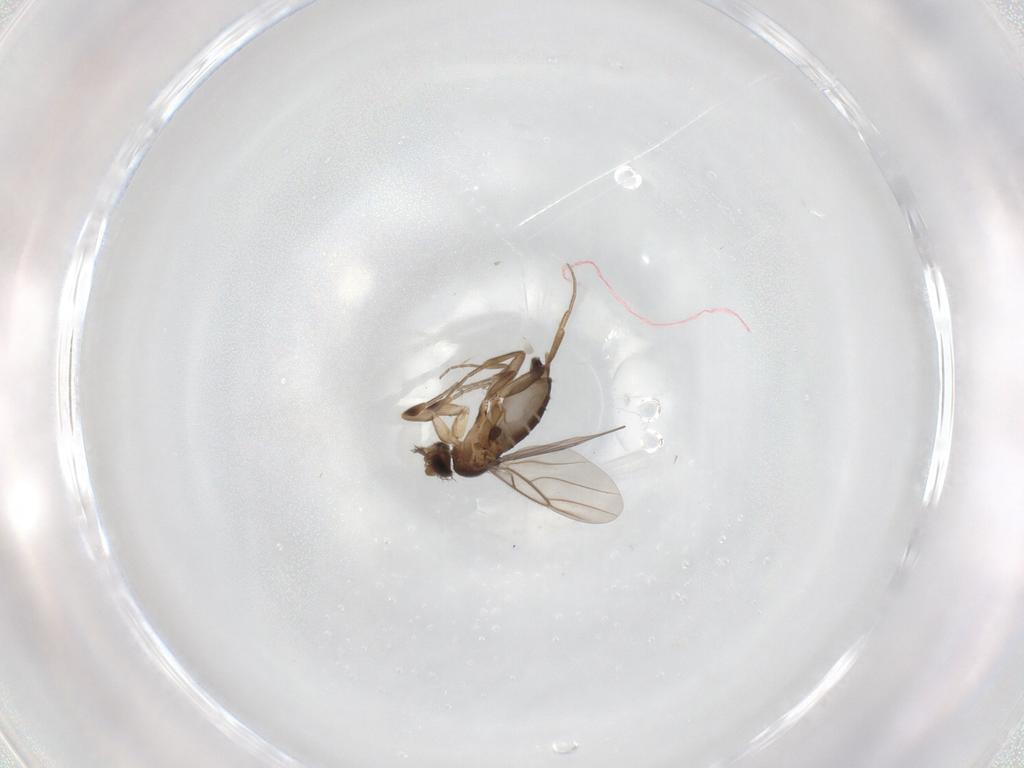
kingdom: Animalia
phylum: Arthropoda
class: Insecta
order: Diptera
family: Phoridae
